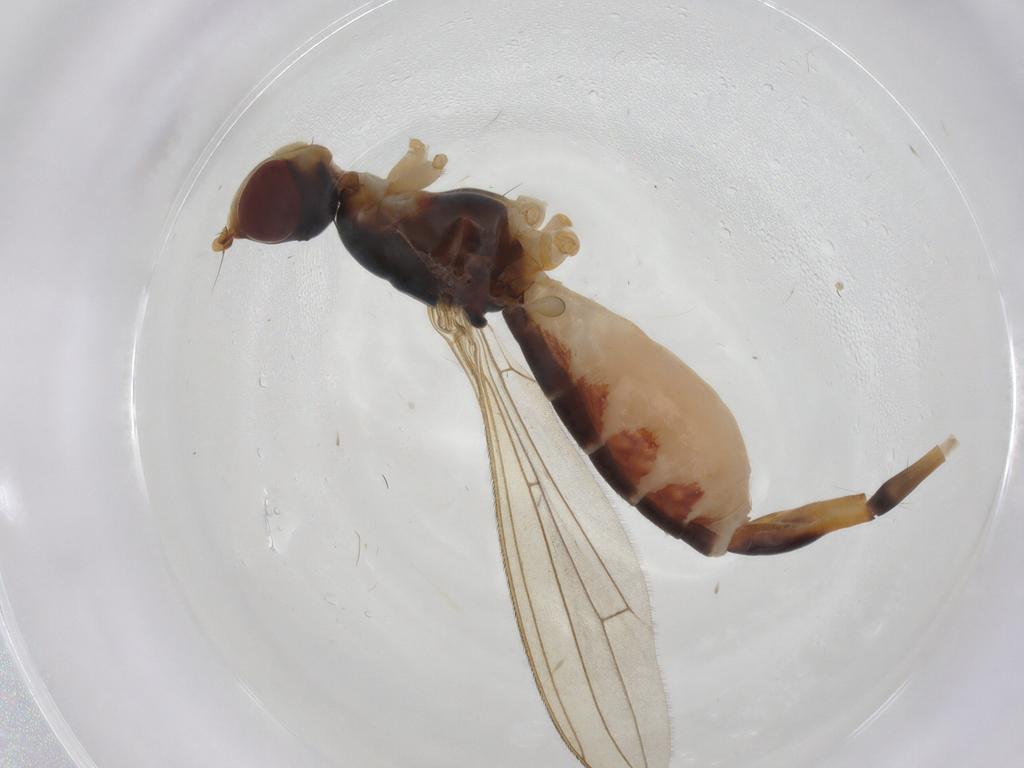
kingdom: Animalia
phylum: Arthropoda
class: Insecta
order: Diptera
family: Micropezidae
